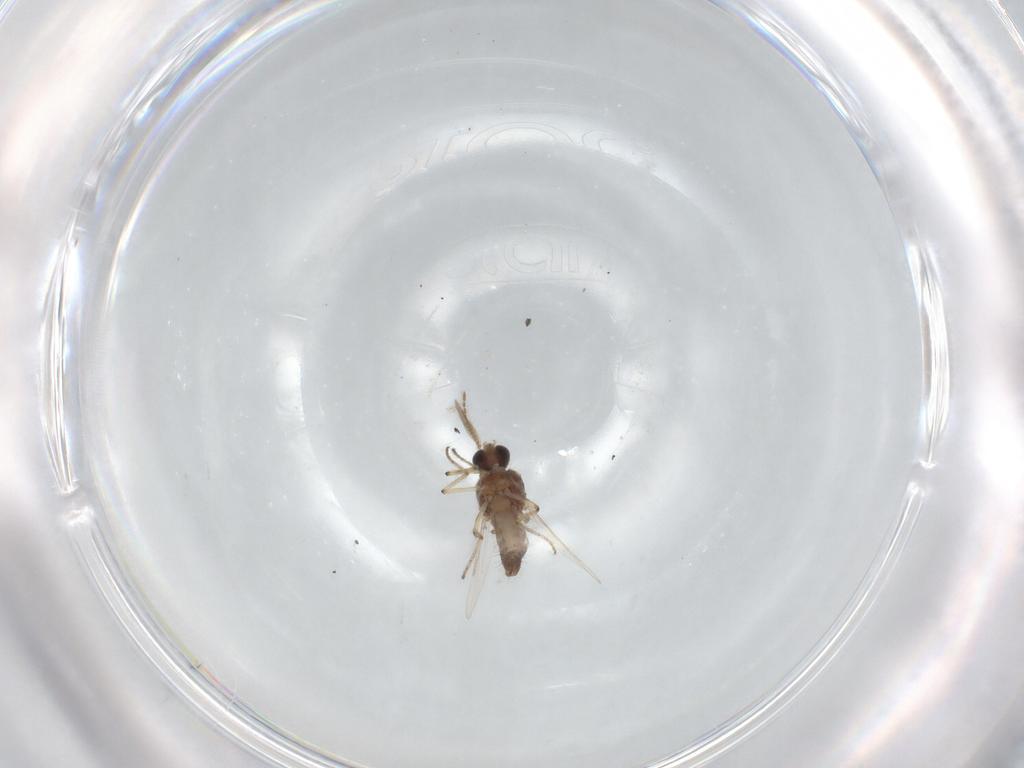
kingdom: Animalia
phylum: Arthropoda
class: Insecta
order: Diptera
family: Ceratopogonidae
